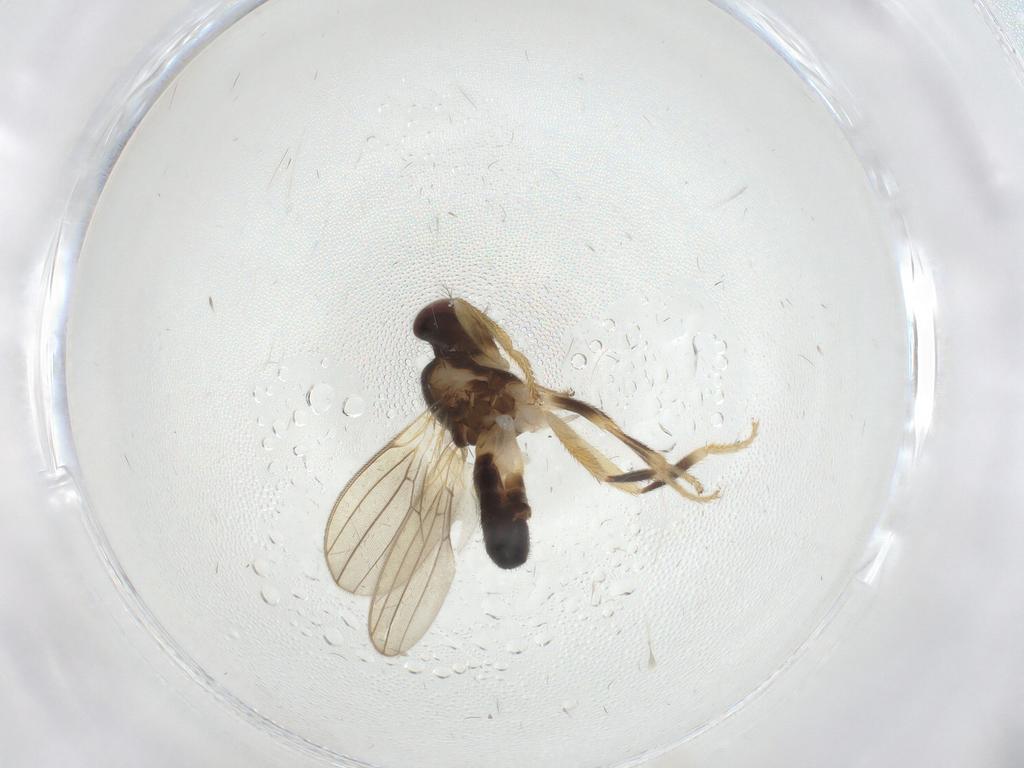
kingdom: Animalia
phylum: Arthropoda
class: Insecta
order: Diptera
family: Periscelididae
